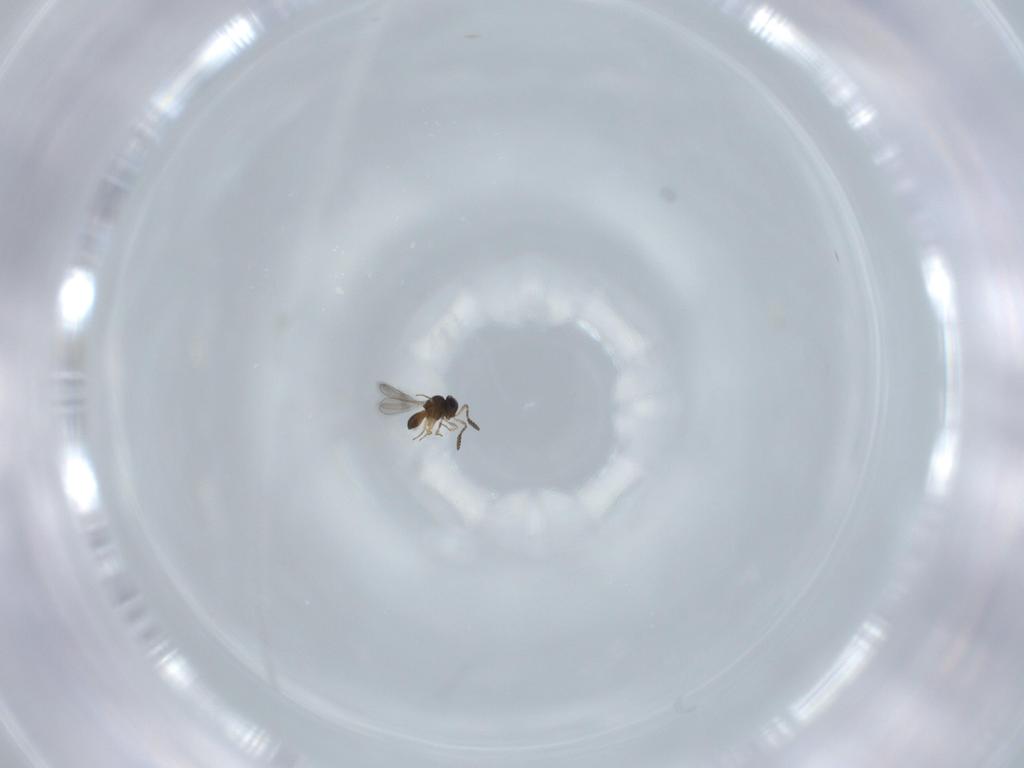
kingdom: Animalia
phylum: Arthropoda
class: Insecta
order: Hymenoptera
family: Scelionidae
